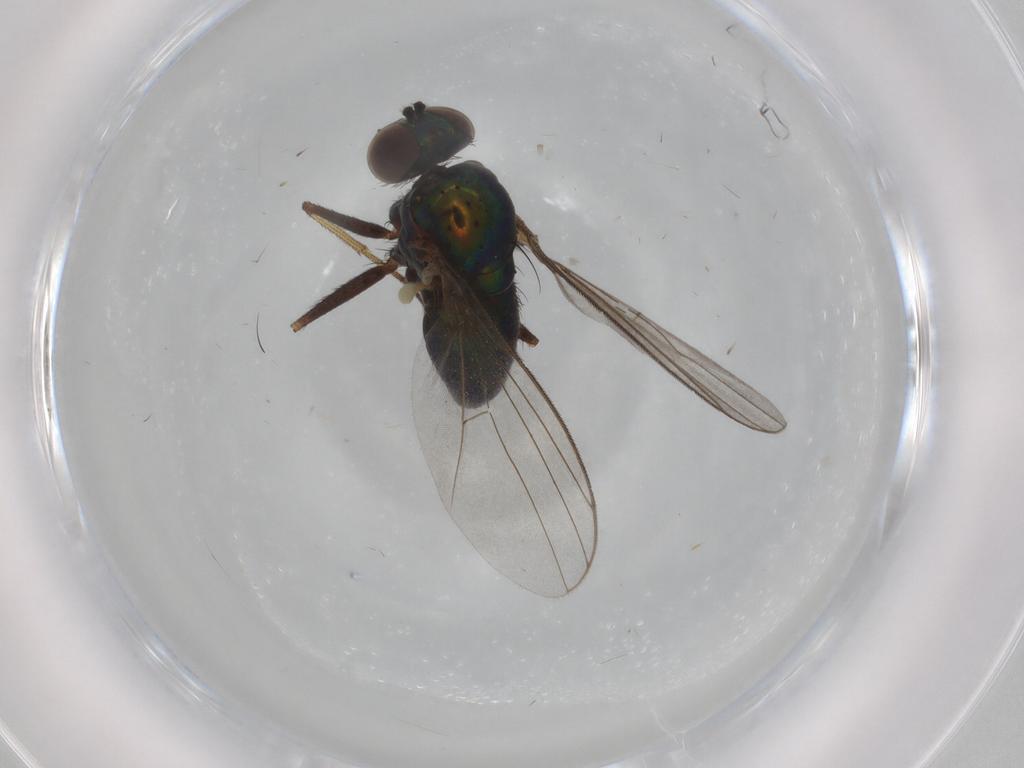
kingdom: Animalia
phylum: Arthropoda
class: Insecta
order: Diptera
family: Dolichopodidae
